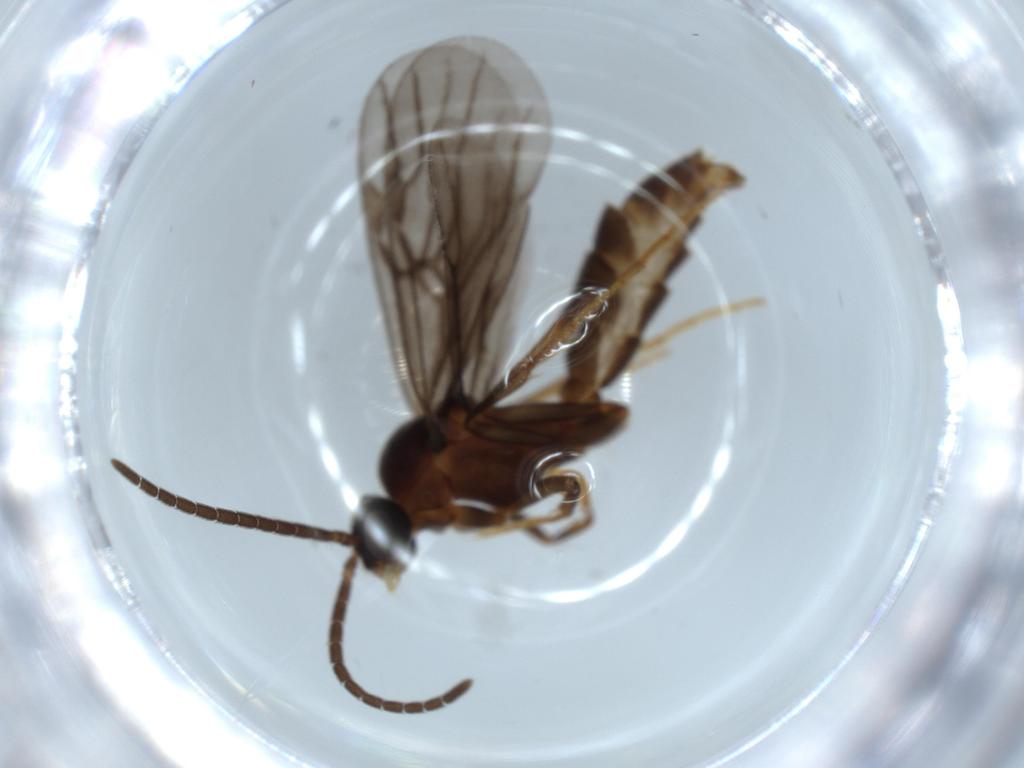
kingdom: Animalia
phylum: Arthropoda
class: Insecta
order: Hymenoptera
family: Formicidae
